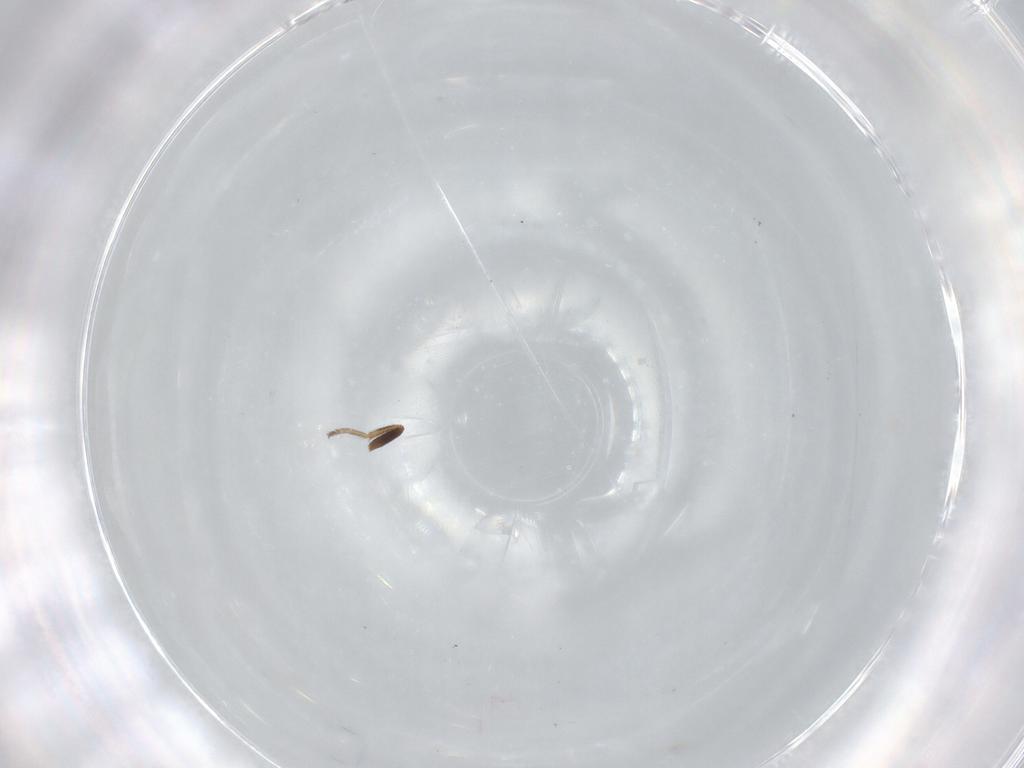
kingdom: Animalia
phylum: Arthropoda
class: Insecta
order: Diptera
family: Milichiidae
